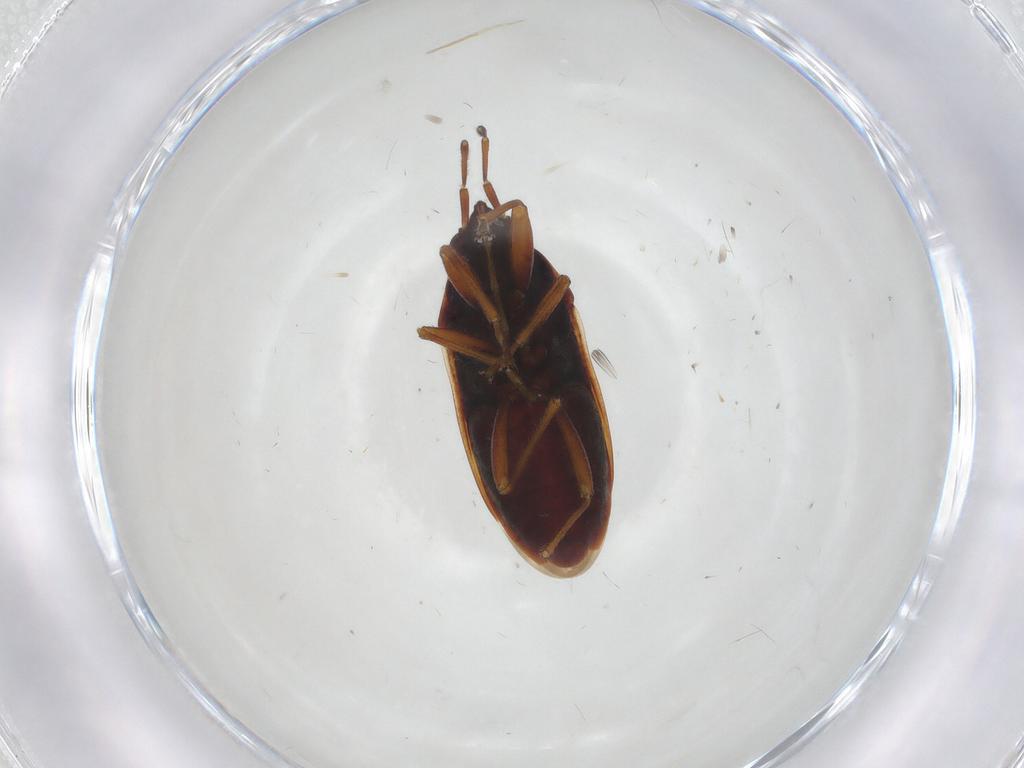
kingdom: Animalia
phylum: Arthropoda
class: Insecta
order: Hemiptera
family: Rhyparochromidae
